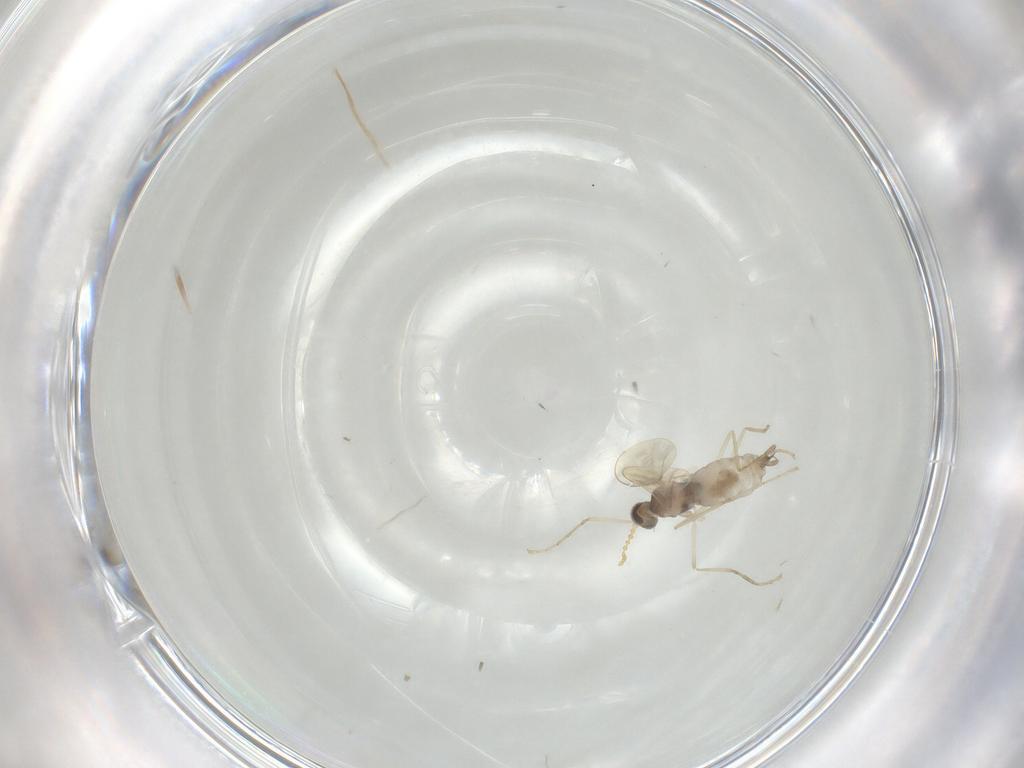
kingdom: Animalia
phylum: Arthropoda
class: Insecta
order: Diptera
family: Cecidomyiidae
